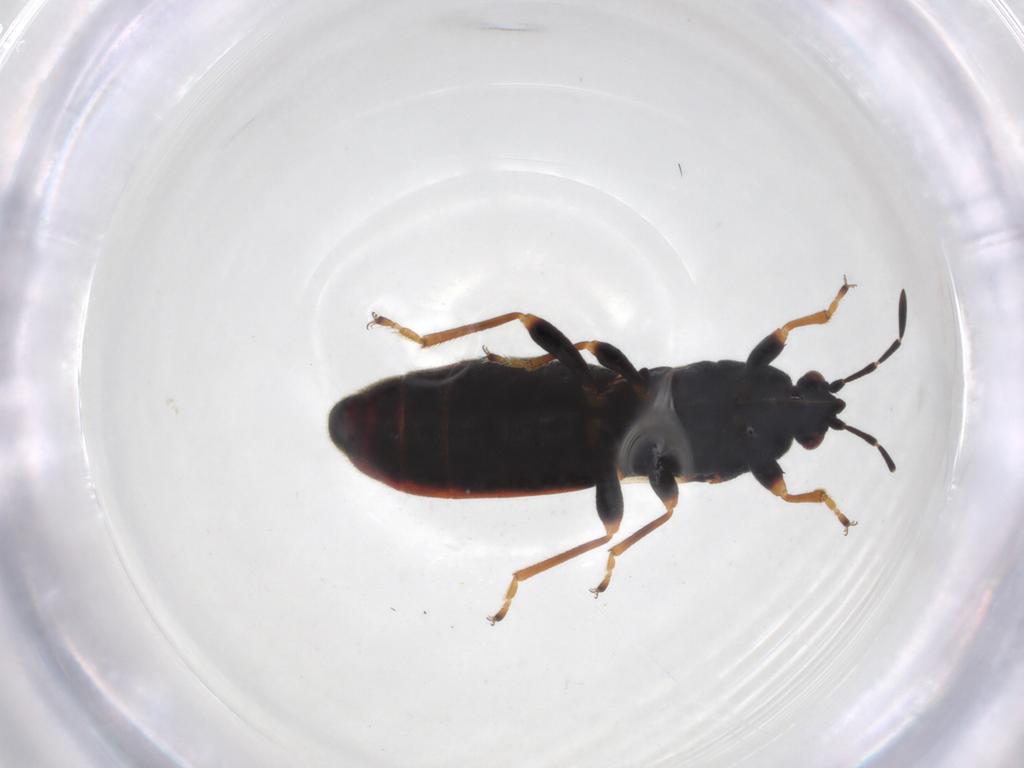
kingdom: Animalia
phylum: Arthropoda
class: Insecta
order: Hemiptera
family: Blissidae
